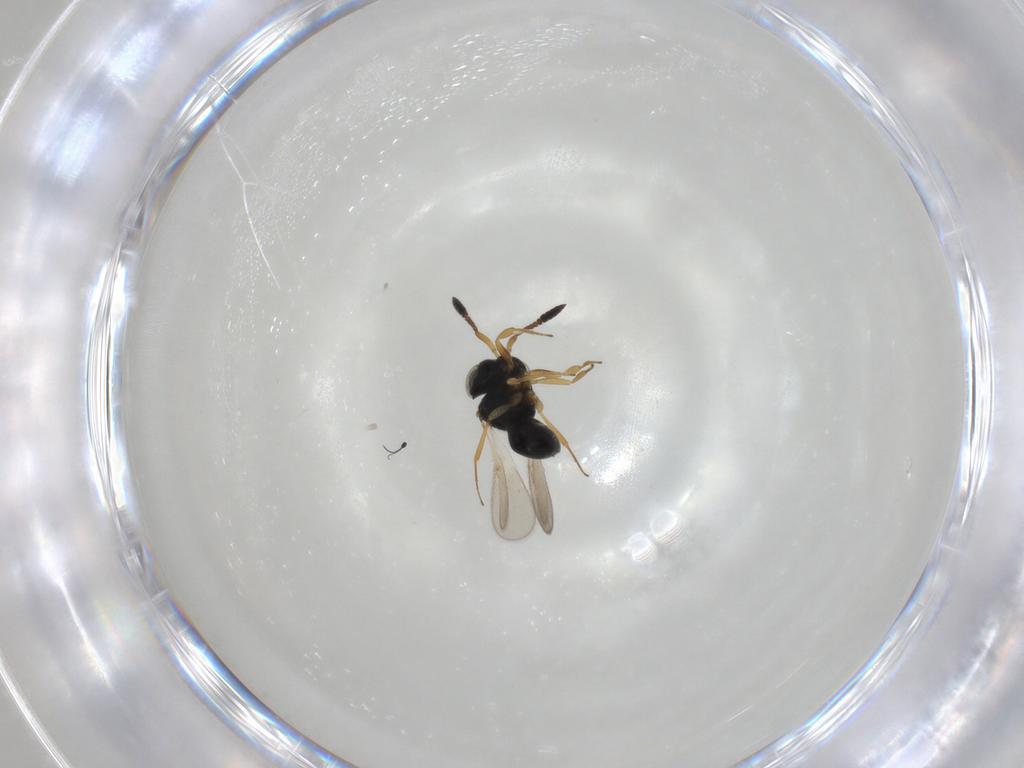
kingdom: Animalia
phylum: Arthropoda
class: Insecta
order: Hymenoptera
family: Scelionidae
